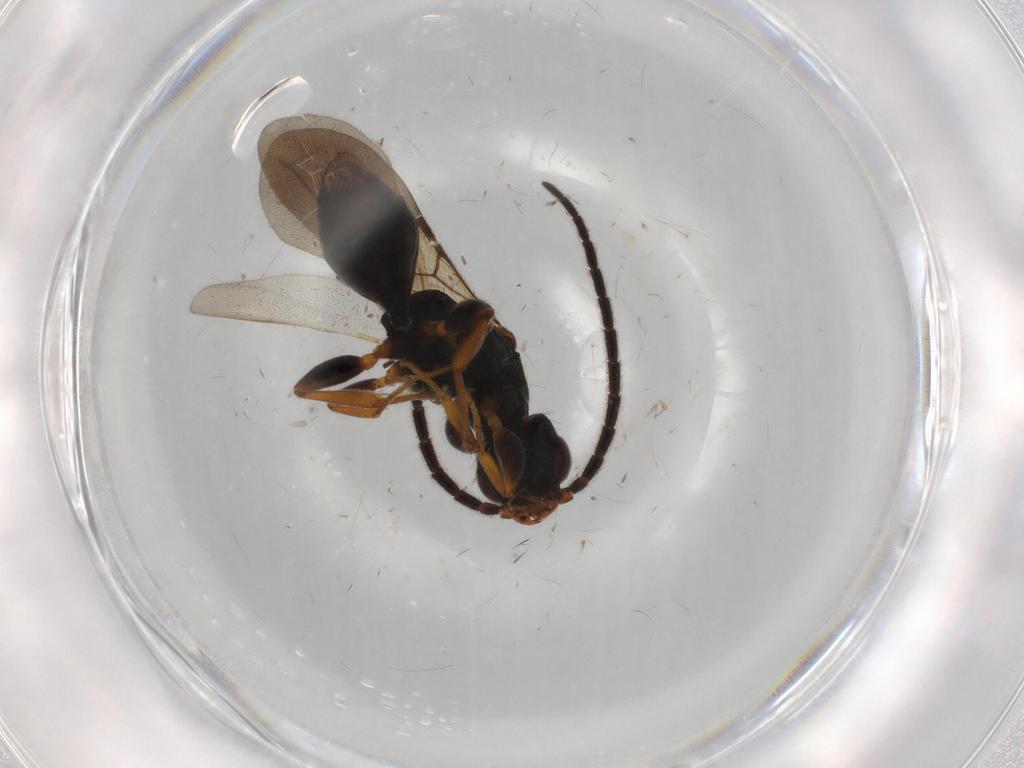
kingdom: Animalia
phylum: Arthropoda
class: Insecta
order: Hymenoptera
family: Bethylidae
